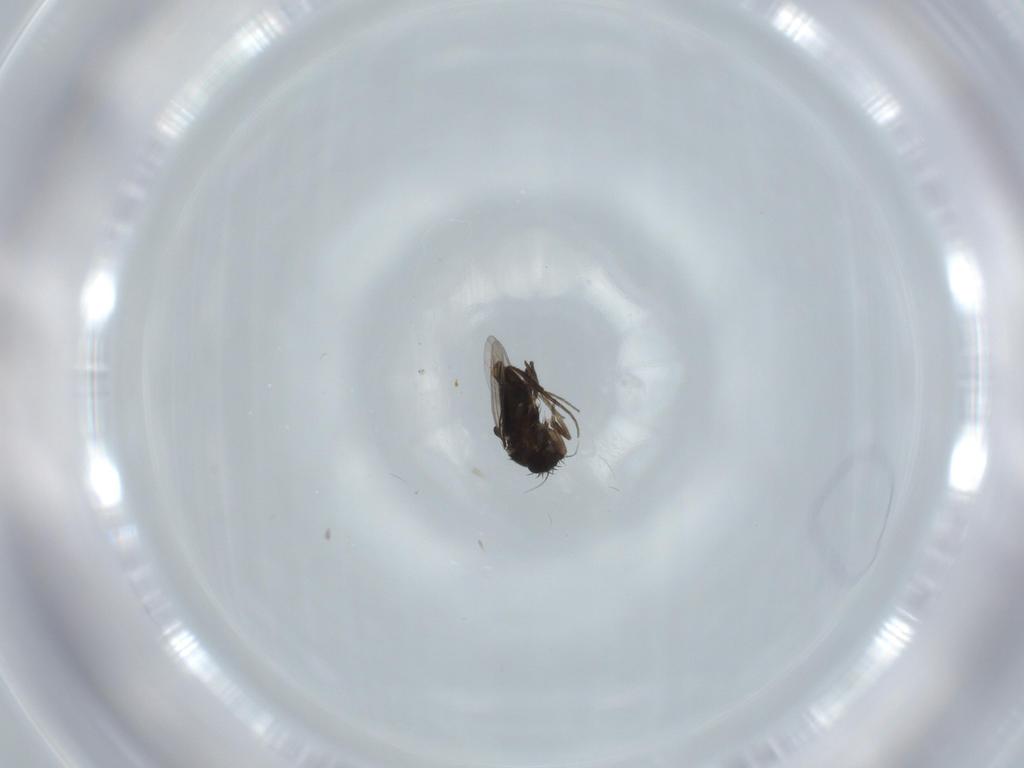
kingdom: Animalia
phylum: Arthropoda
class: Insecta
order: Diptera
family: Phoridae
